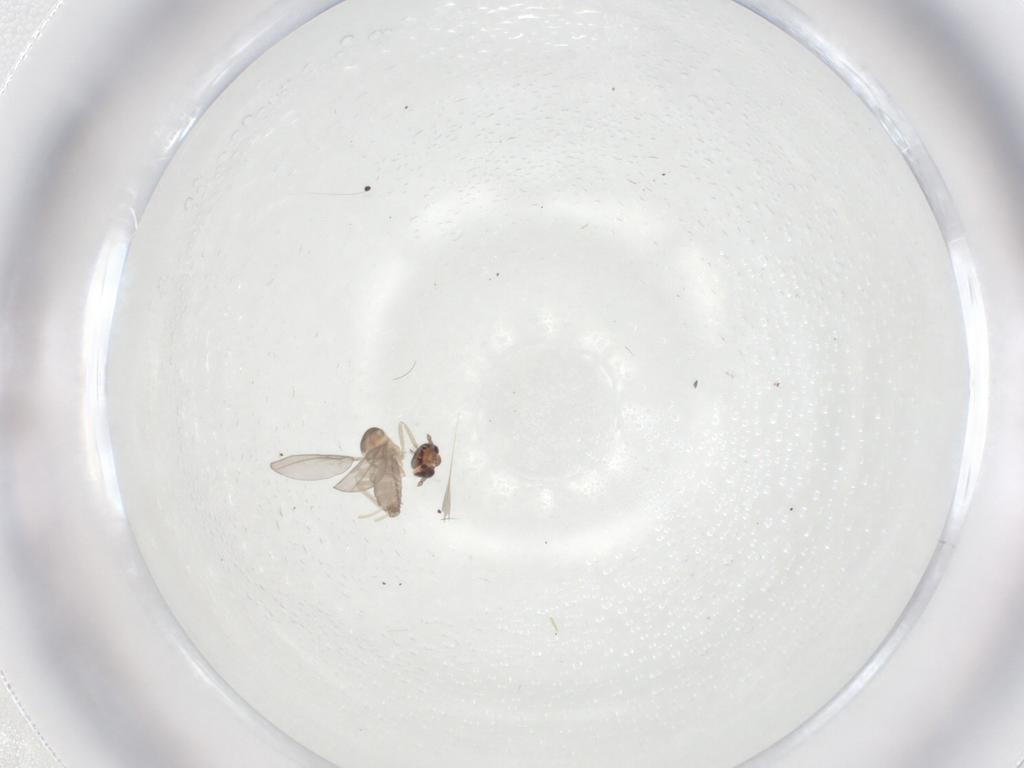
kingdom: Animalia
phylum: Arthropoda
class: Insecta
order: Diptera
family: Cecidomyiidae
